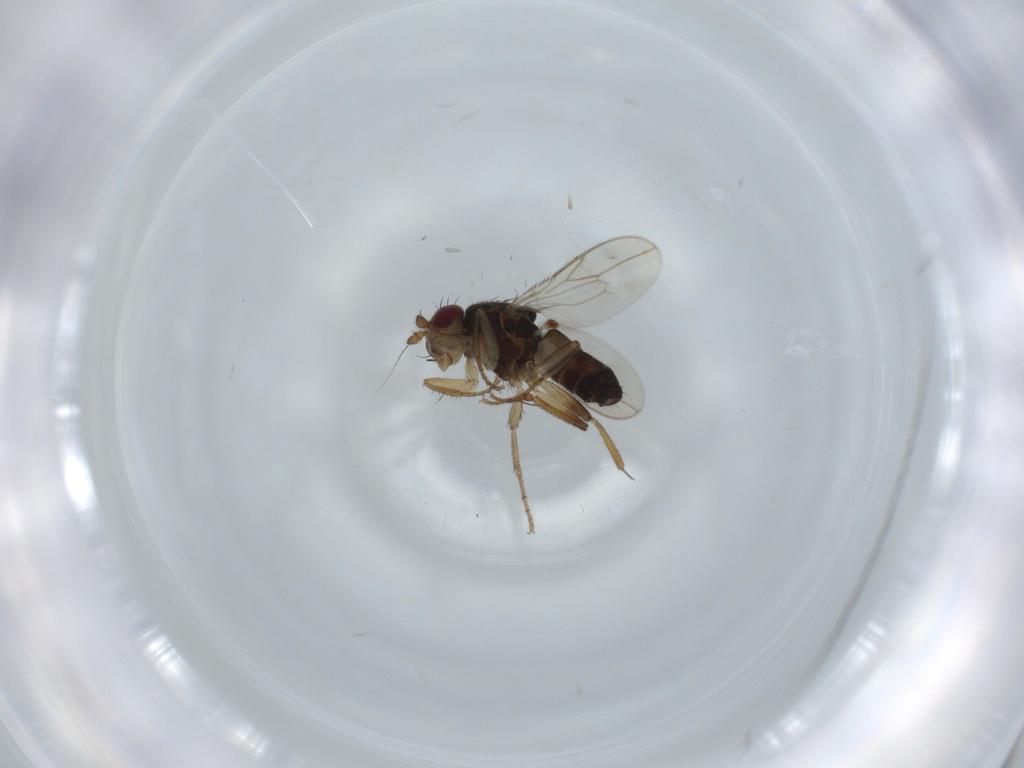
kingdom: Animalia
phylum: Arthropoda
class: Insecta
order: Diptera
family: Sphaeroceridae
